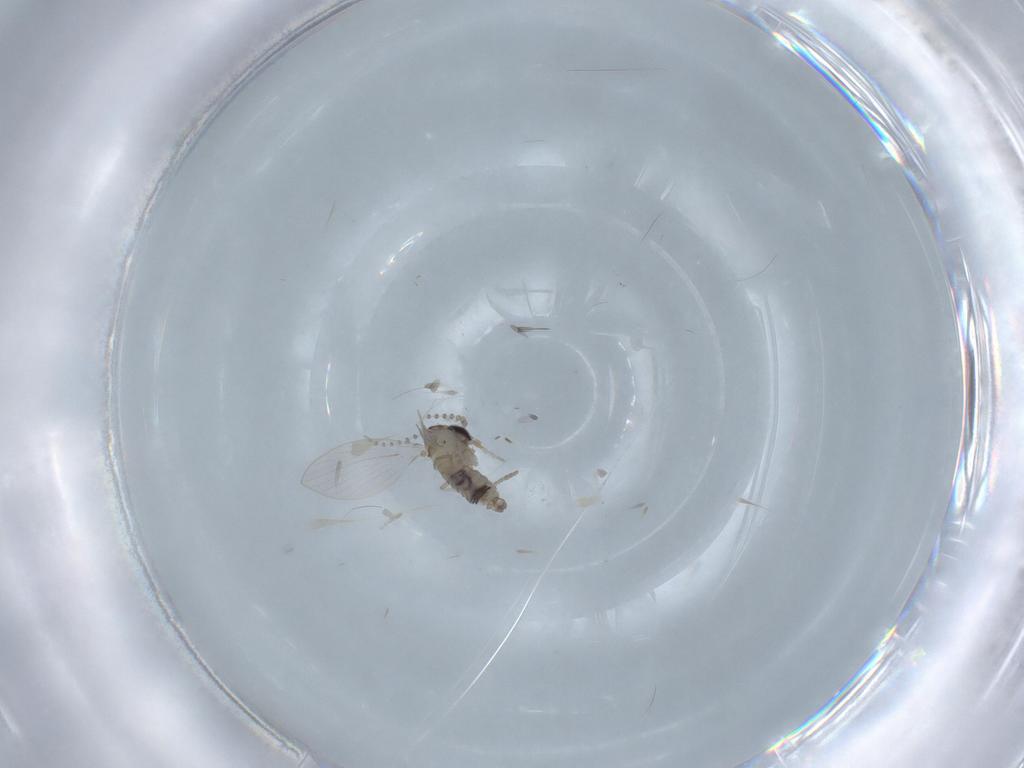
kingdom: Animalia
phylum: Arthropoda
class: Insecta
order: Diptera
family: Psychodidae
